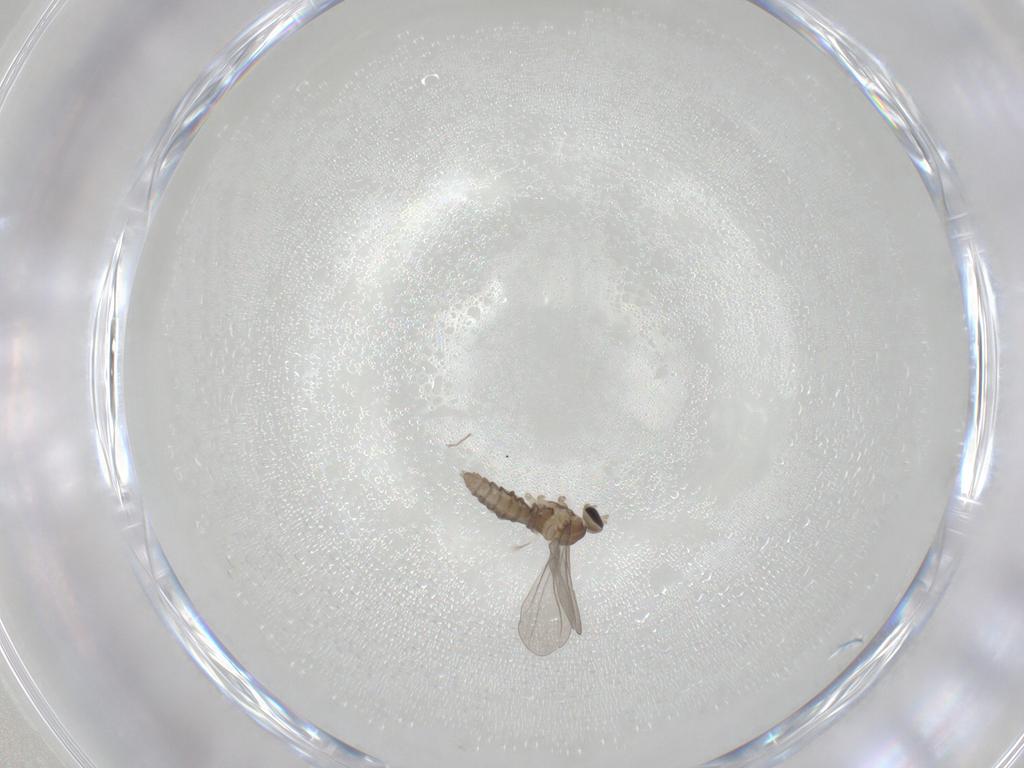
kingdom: Animalia
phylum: Arthropoda
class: Insecta
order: Diptera
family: Cecidomyiidae
